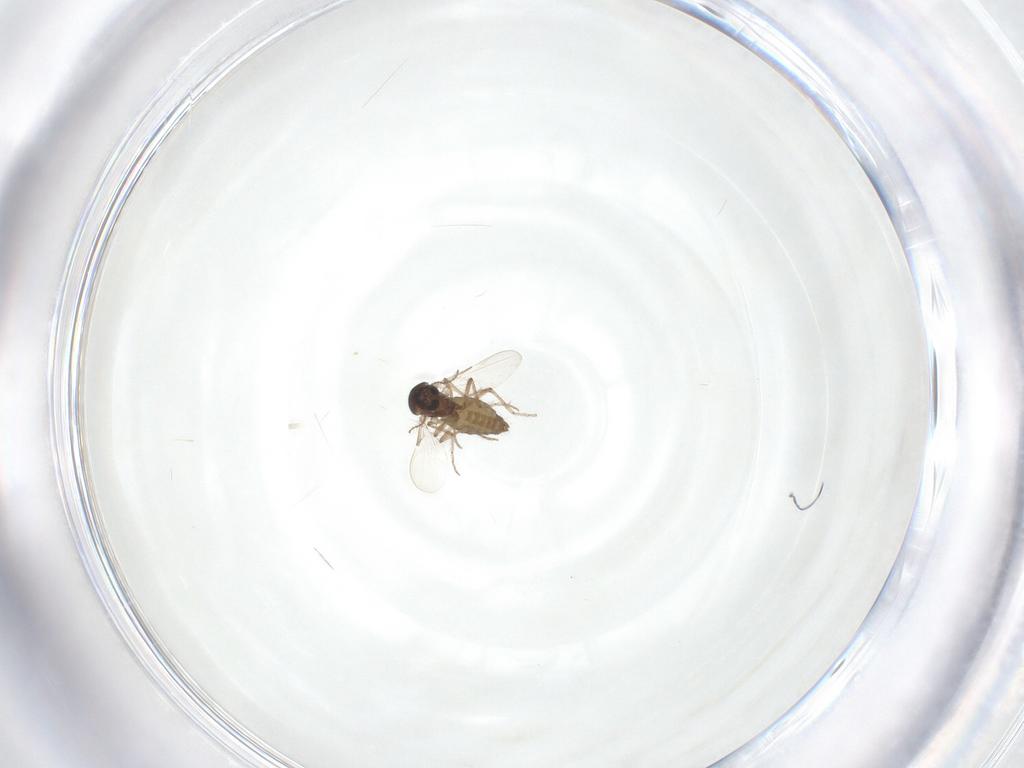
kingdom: Animalia
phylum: Arthropoda
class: Insecta
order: Diptera
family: Ceratopogonidae
